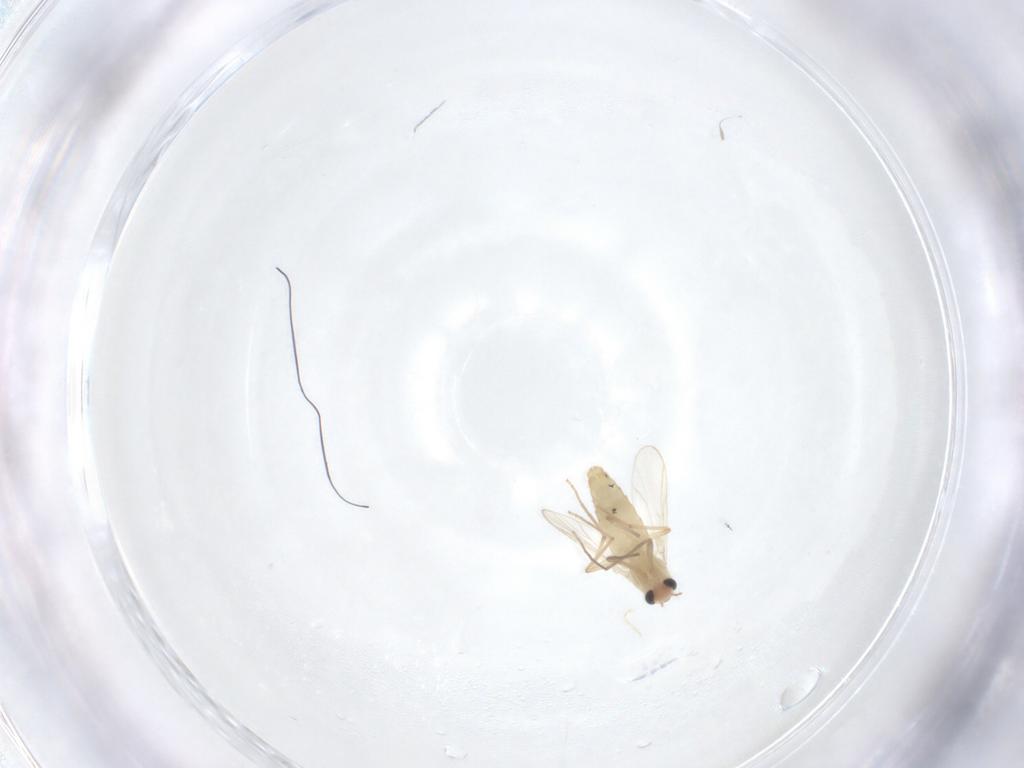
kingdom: Animalia
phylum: Arthropoda
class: Insecta
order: Diptera
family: Chironomidae
